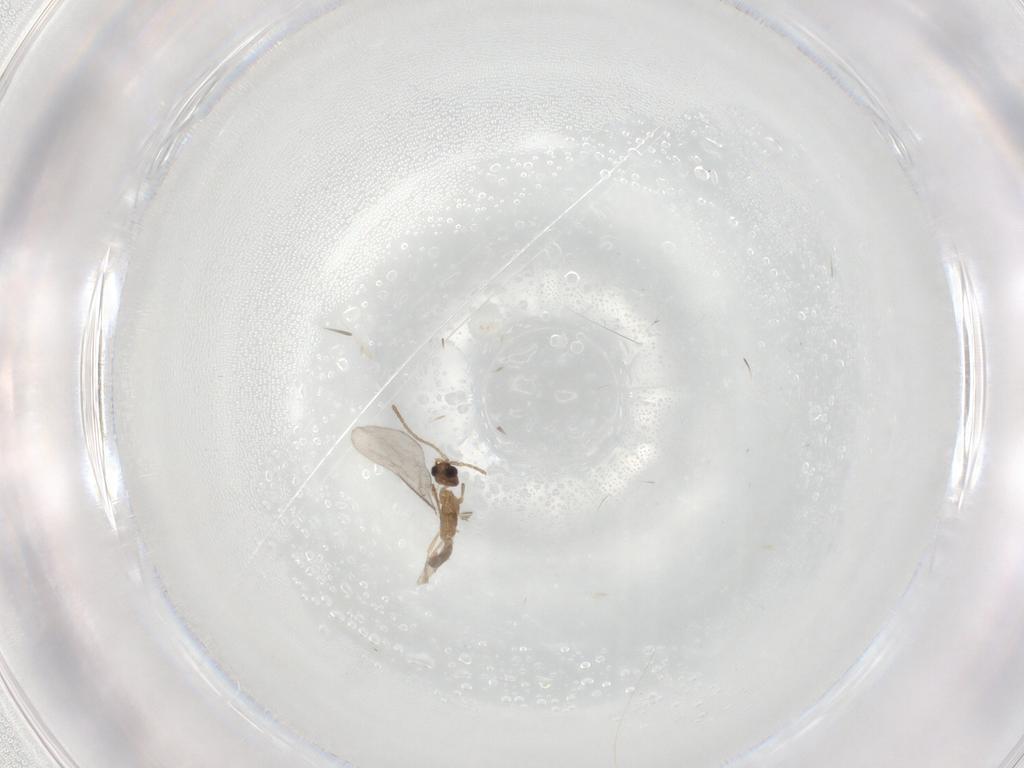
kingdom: Animalia
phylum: Arthropoda
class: Insecta
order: Hymenoptera
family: Formicidae
